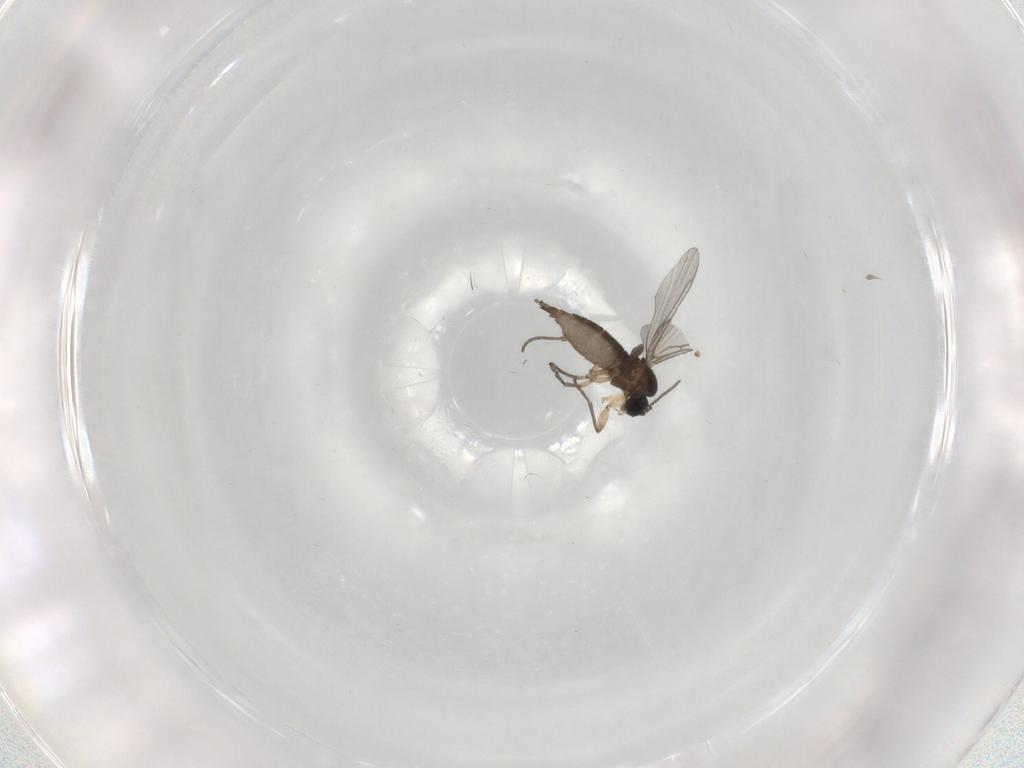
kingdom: Animalia
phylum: Arthropoda
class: Insecta
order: Diptera
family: Sciaridae
